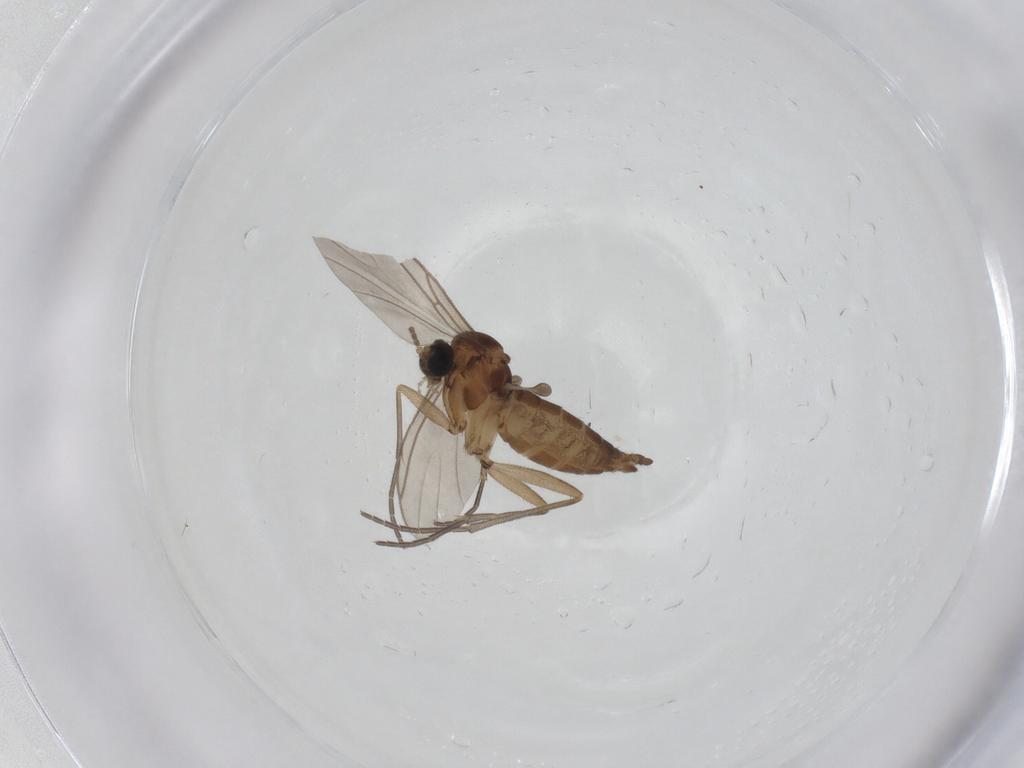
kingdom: Animalia
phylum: Arthropoda
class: Insecta
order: Diptera
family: Sciaridae
